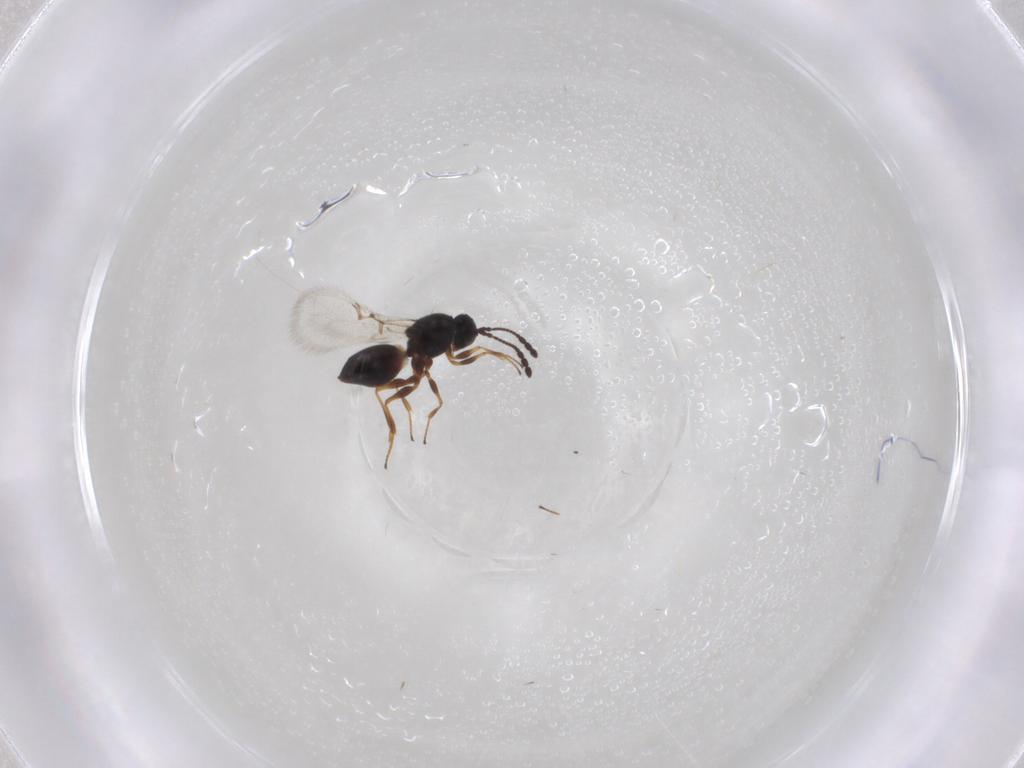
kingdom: Animalia
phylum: Arthropoda
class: Insecta
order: Hymenoptera
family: Figitidae
